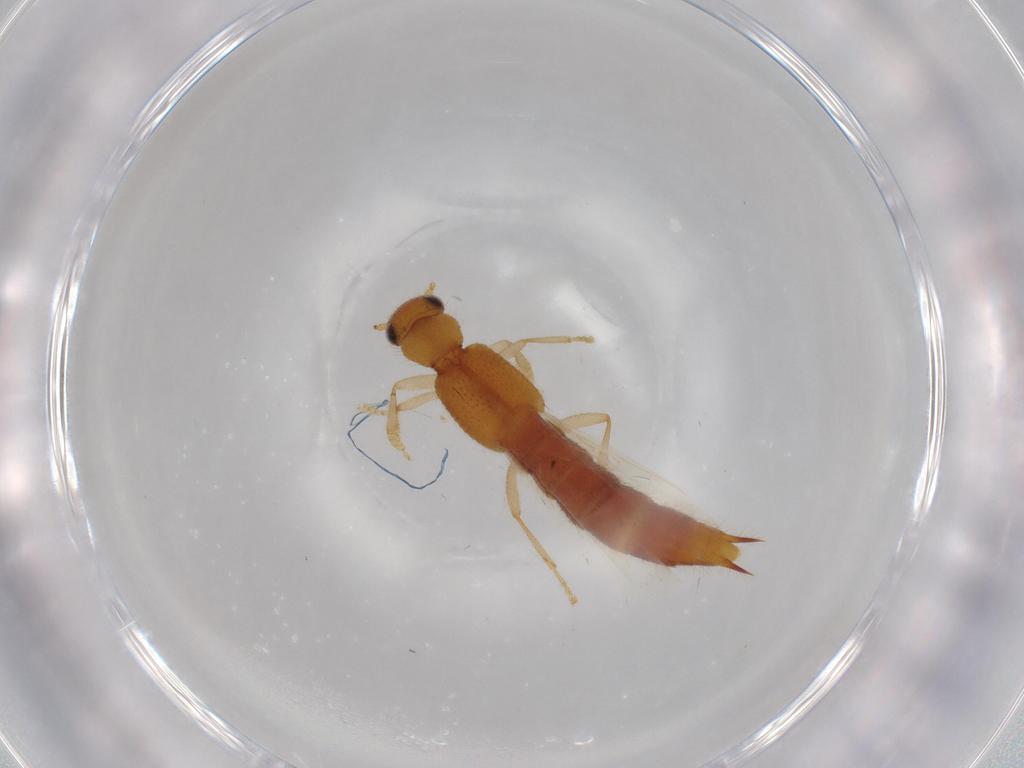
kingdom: Animalia
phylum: Arthropoda
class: Insecta
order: Coleoptera
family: Staphylinidae
